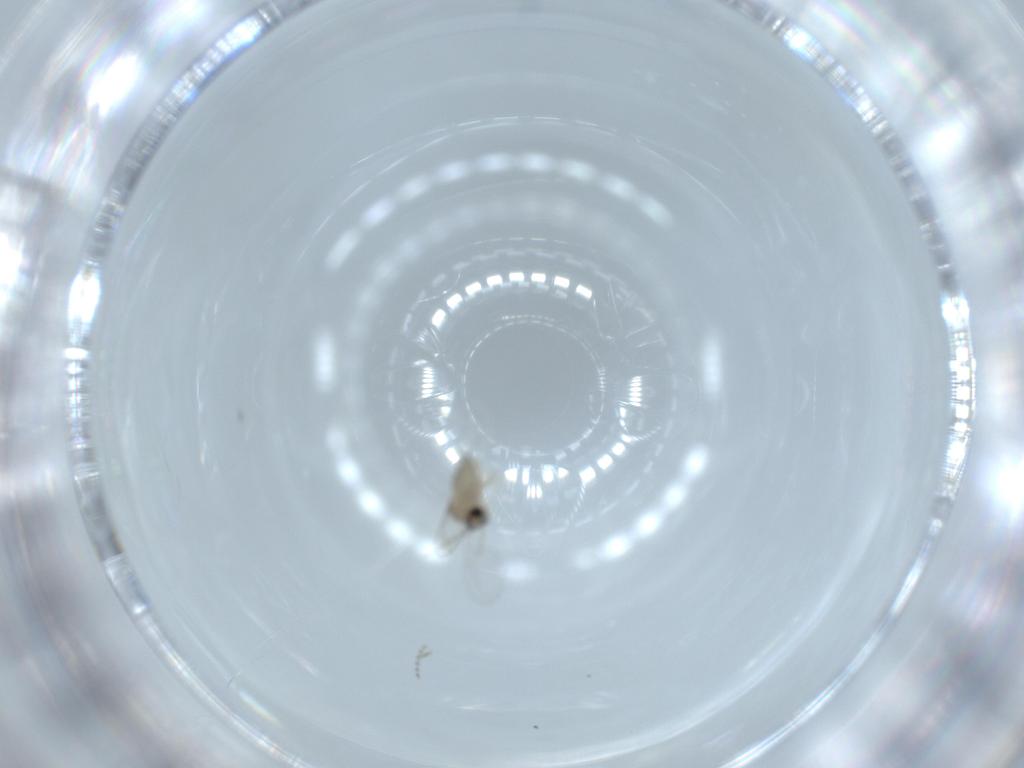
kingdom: Animalia
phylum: Arthropoda
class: Insecta
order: Diptera
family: Cecidomyiidae
